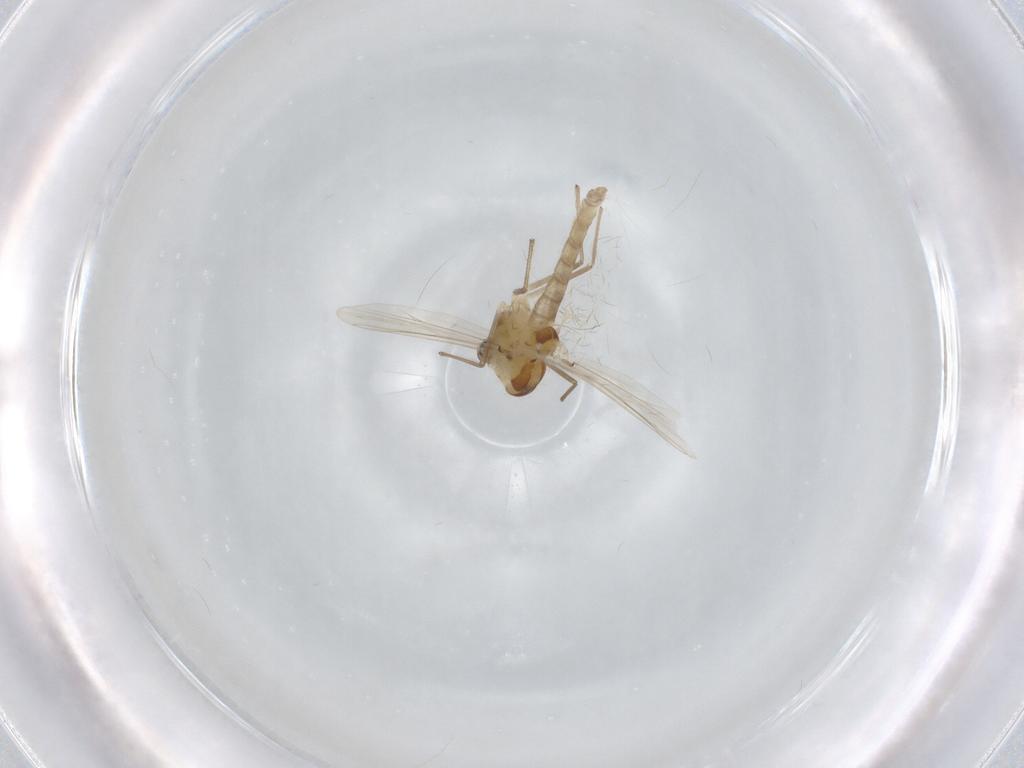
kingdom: Animalia
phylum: Arthropoda
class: Insecta
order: Diptera
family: Chironomidae
